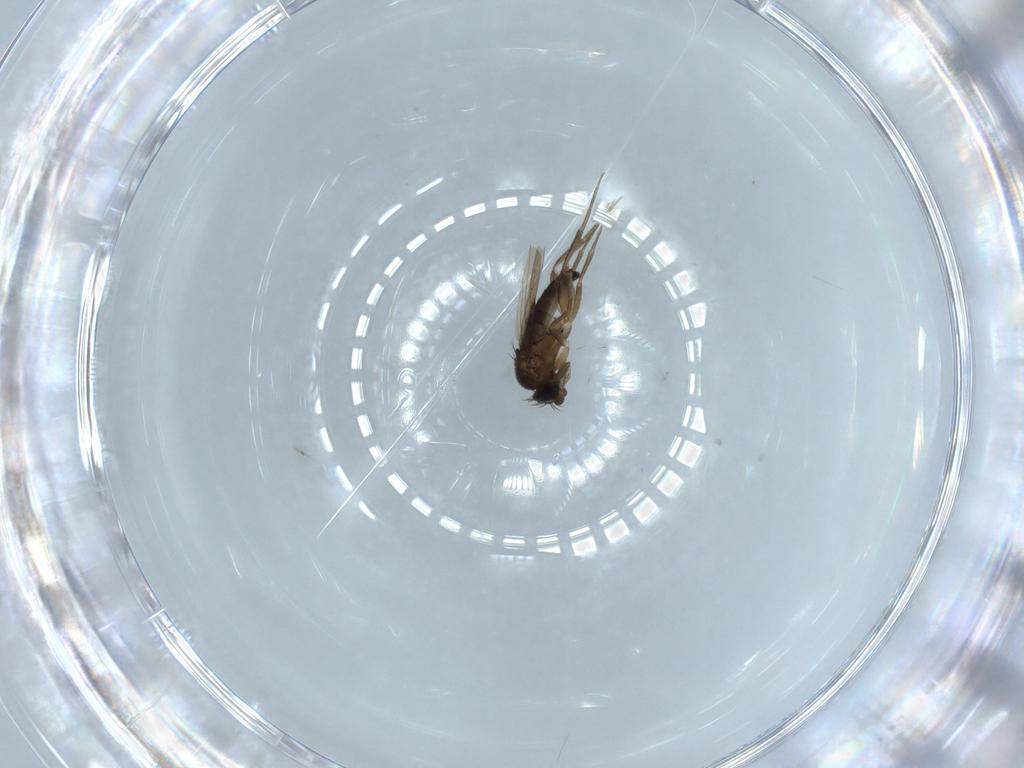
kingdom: Animalia
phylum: Arthropoda
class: Insecta
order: Diptera
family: Phoridae
